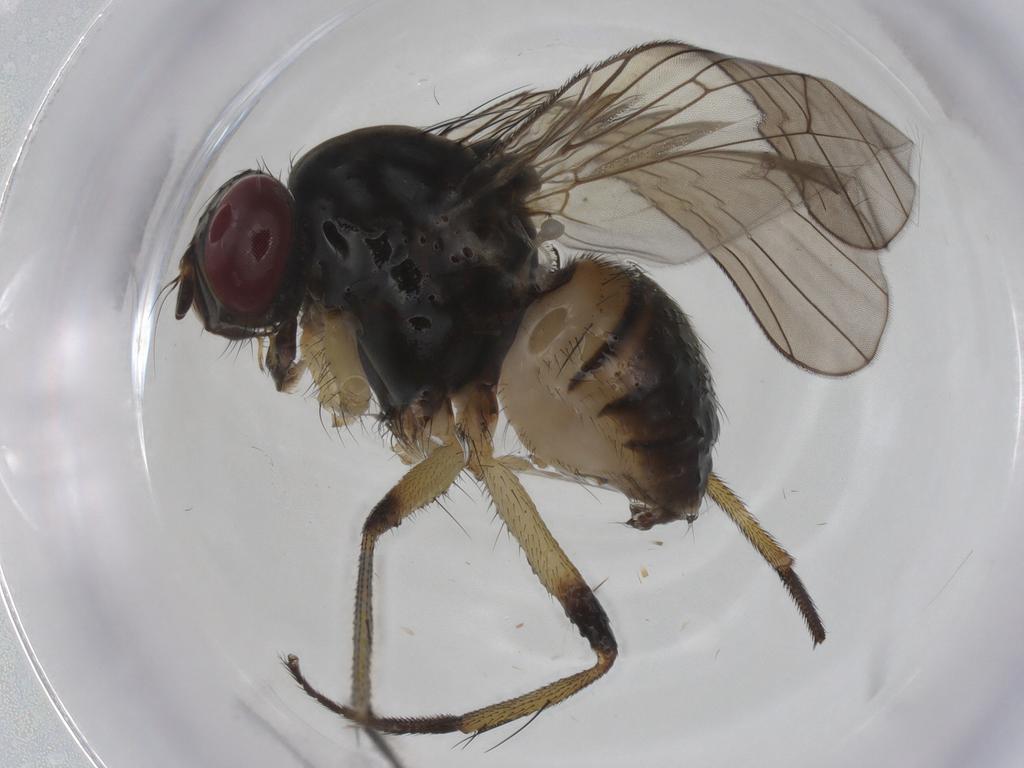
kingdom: Animalia
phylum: Arthropoda
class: Insecta
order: Diptera
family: Muscidae
